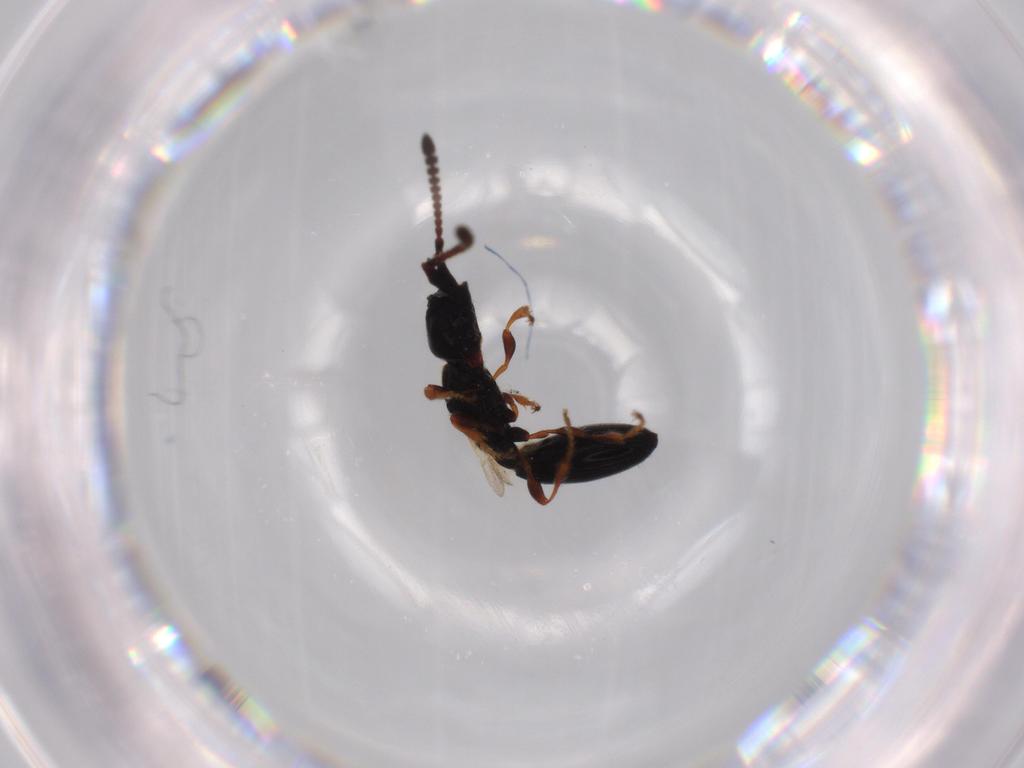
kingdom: Animalia
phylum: Arthropoda
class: Insecta
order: Hymenoptera
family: Diapriidae
